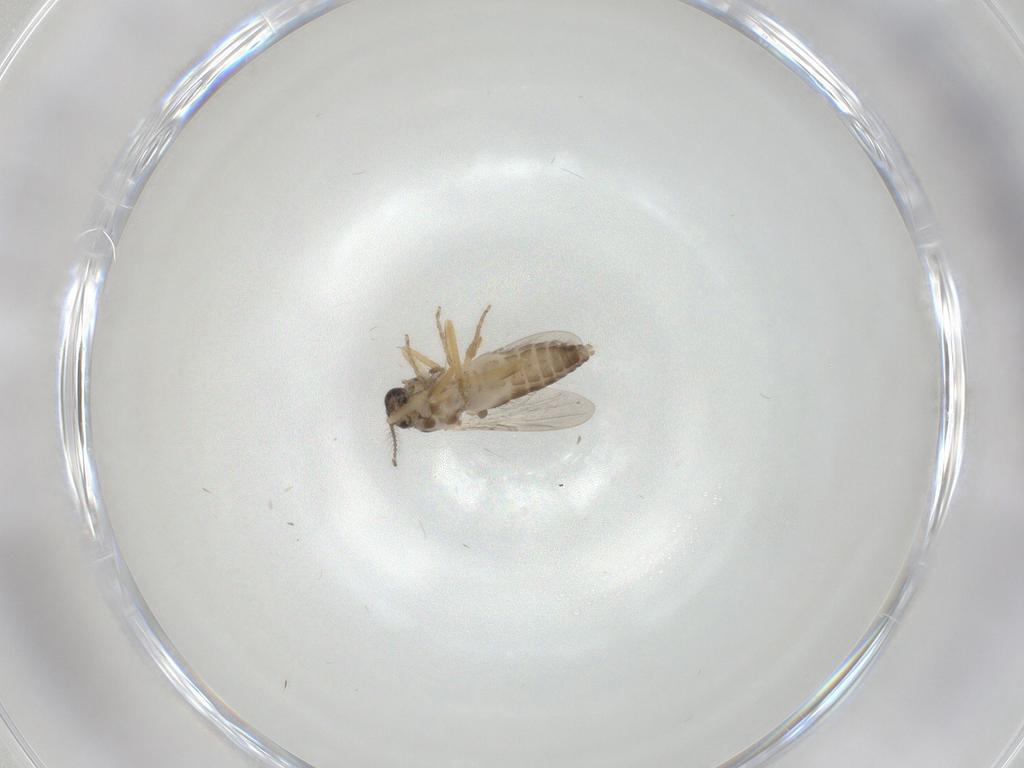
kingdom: Animalia
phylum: Arthropoda
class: Insecta
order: Diptera
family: Ceratopogonidae
